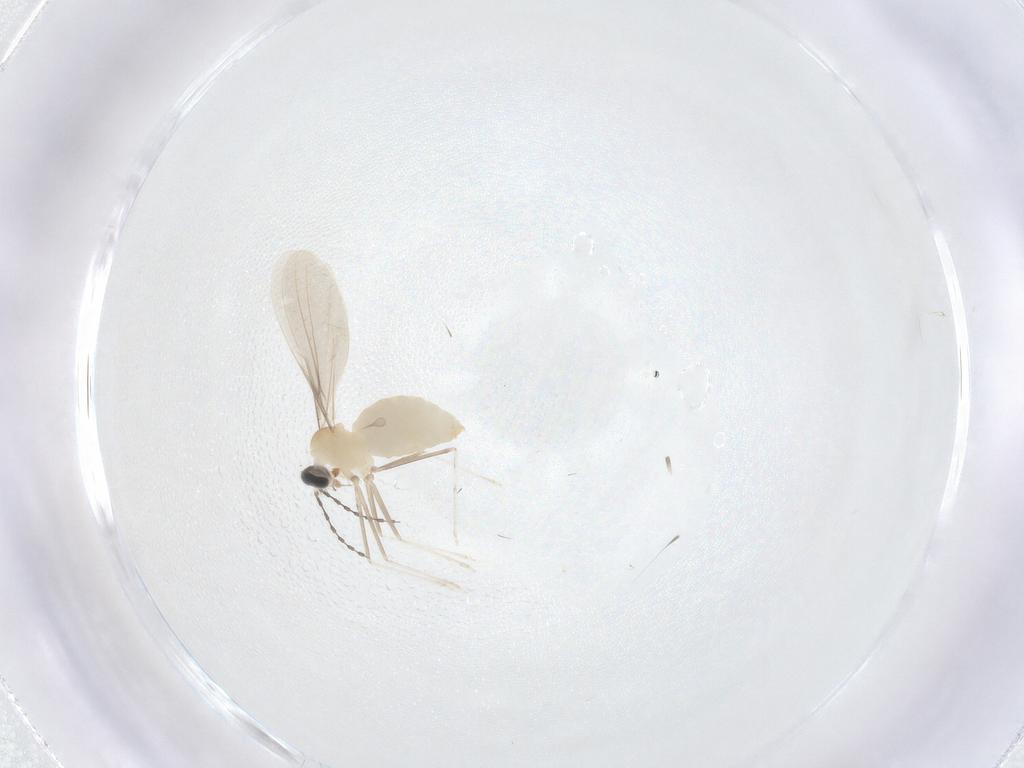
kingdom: Animalia
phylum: Arthropoda
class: Insecta
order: Diptera
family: Cecidomyiidae
